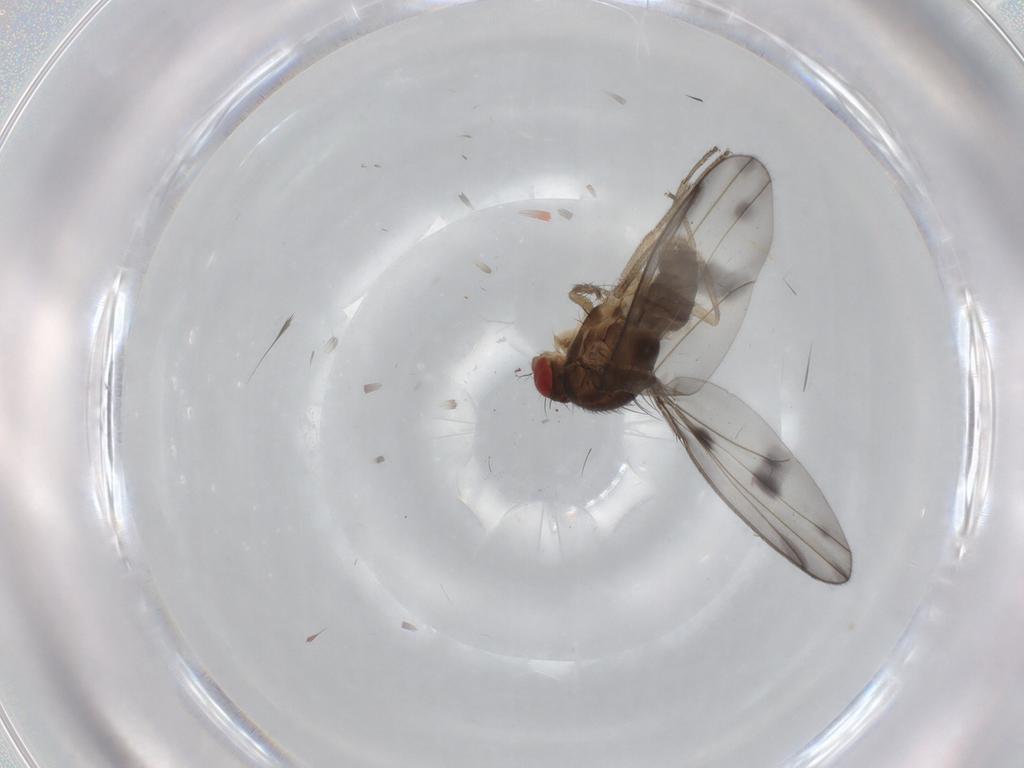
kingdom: Animalia
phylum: Arthropoda
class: Insecta
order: Diptera
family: Drosophilidae
